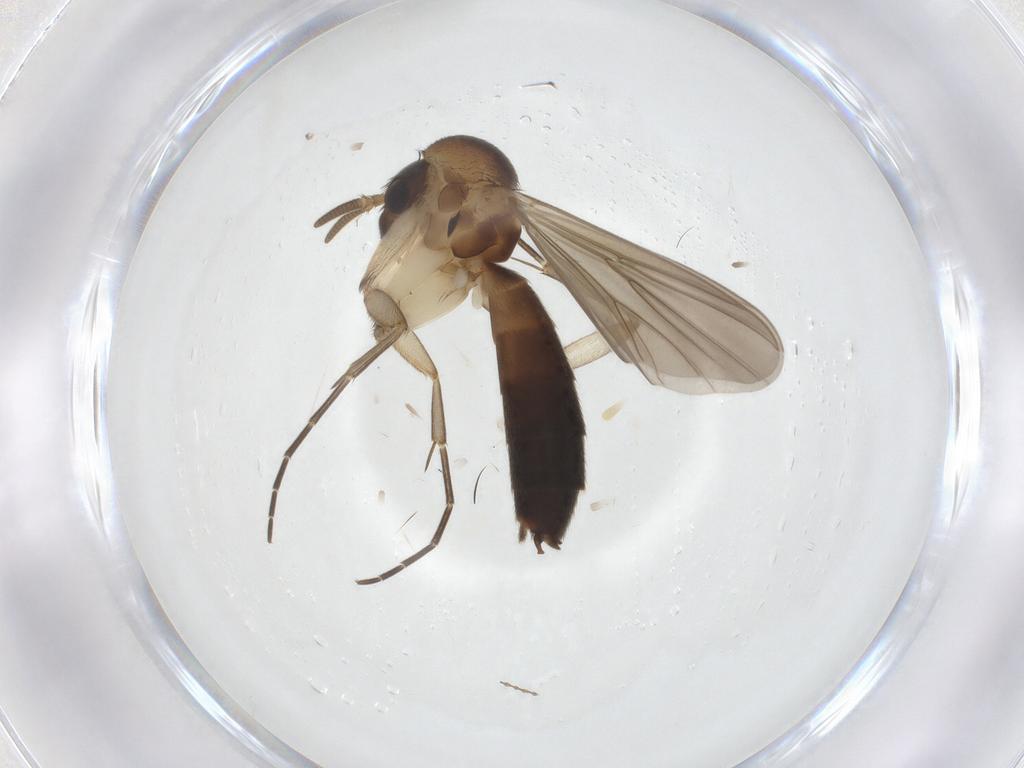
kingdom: Animalia
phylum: Arthropoda
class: Insecta
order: Diptera
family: Mycetophilidae
